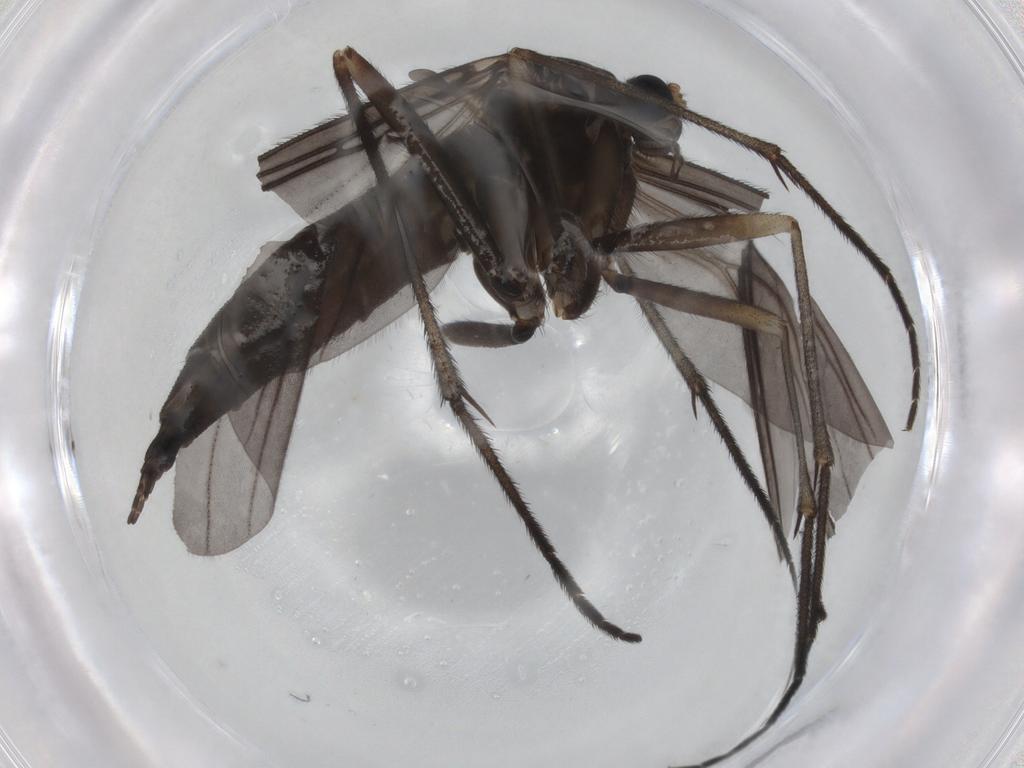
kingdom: Animalia
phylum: Arthropoda
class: Insecta
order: Diptera
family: Sciaridae
